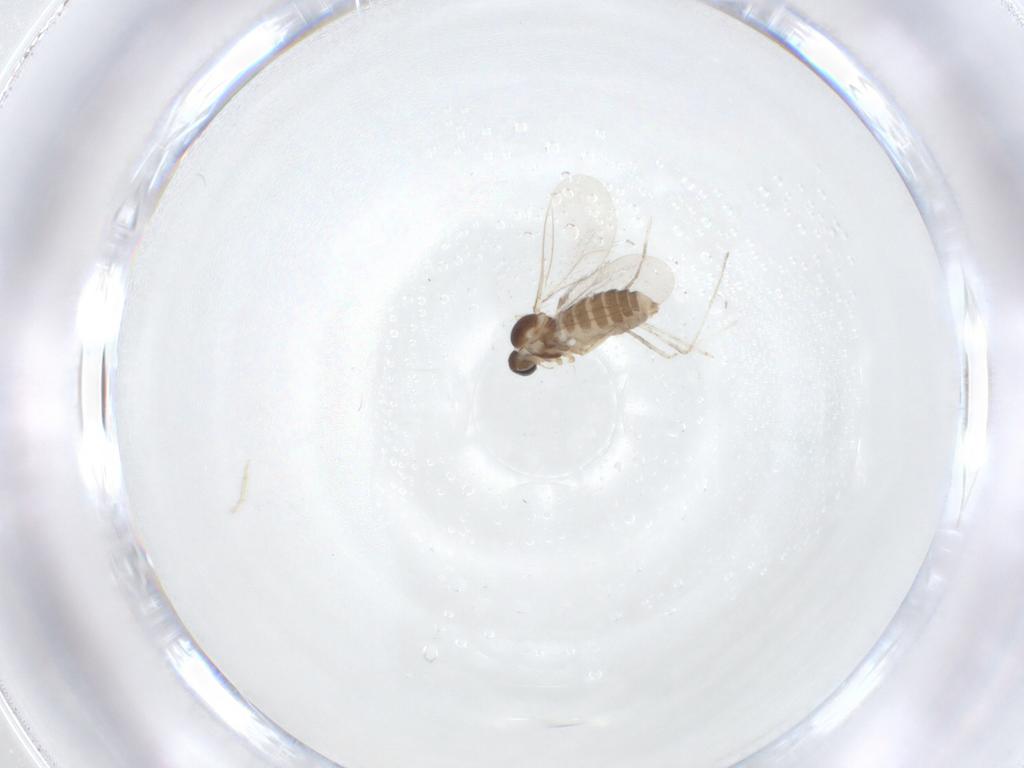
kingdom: Animalia
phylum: Arthropoda
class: Insecta
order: Diptera
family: Cecidomyiidae
